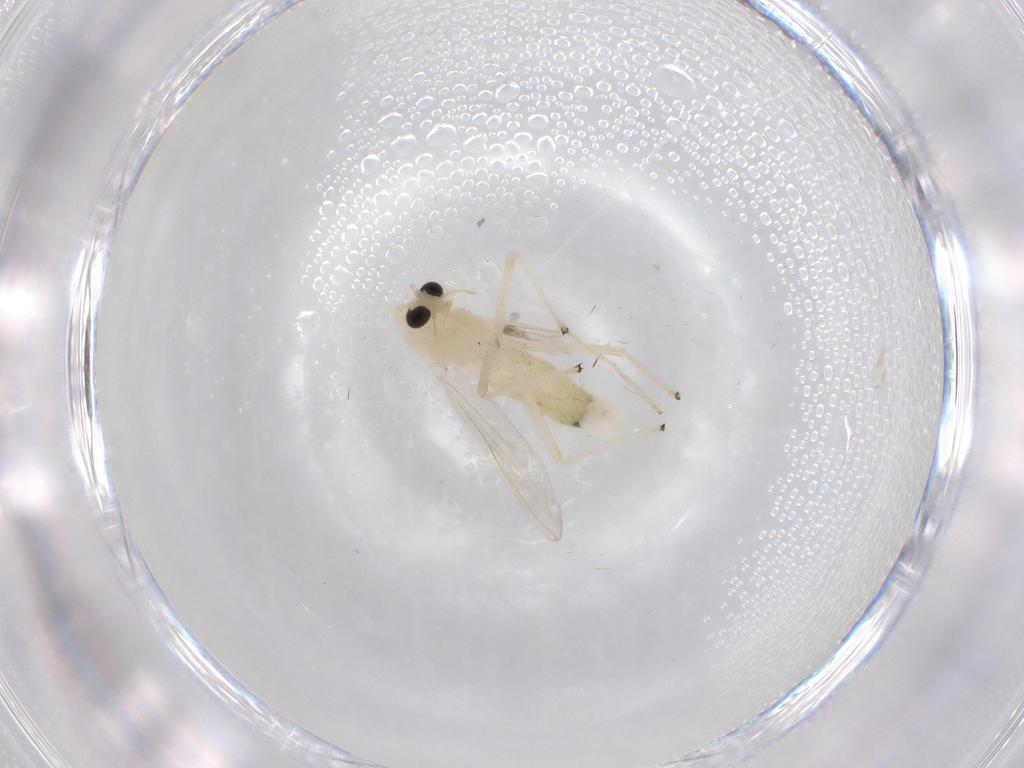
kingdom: Animalia
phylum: Arthropoda
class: Insecta
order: Diptera
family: Chironomidae
